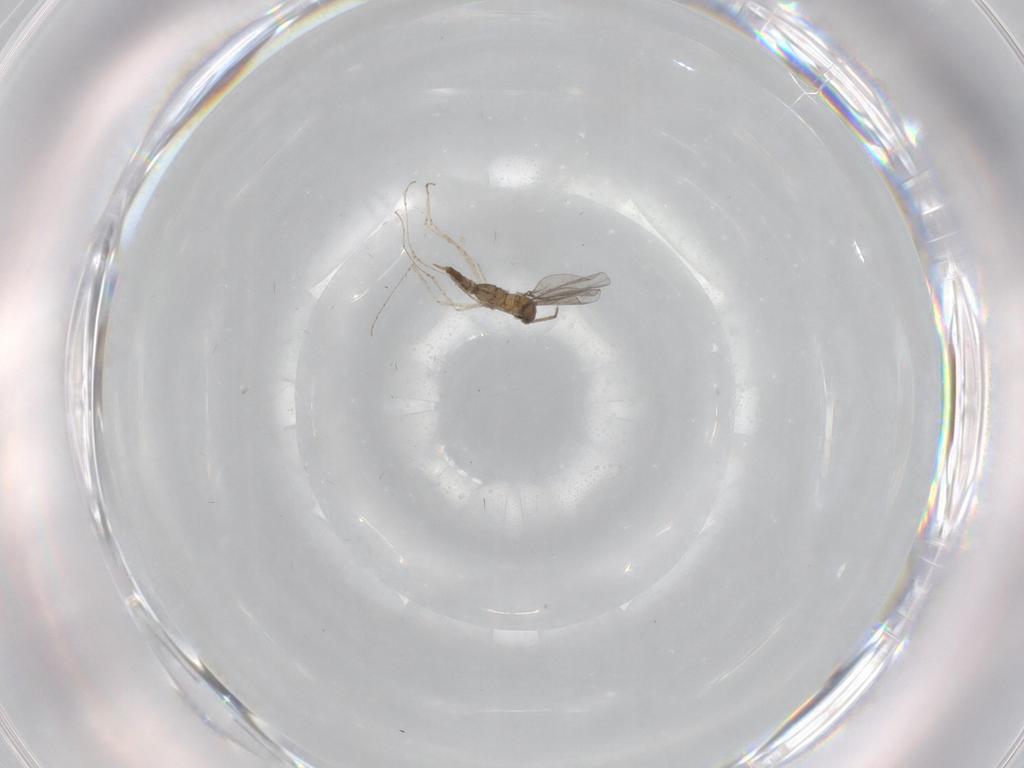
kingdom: Animalia
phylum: Arthropoda
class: Insecta
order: Diptera
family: Cecidomyiidae
